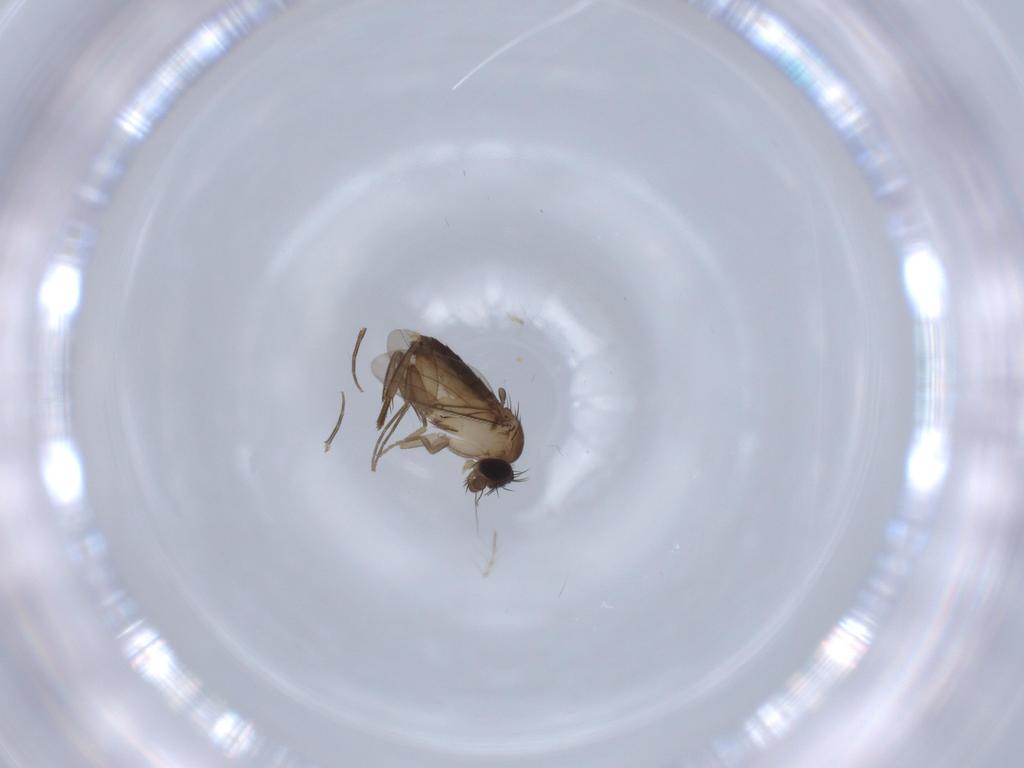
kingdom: Animalia
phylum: Arthropoda
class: Insecta
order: Diptera
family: Phoridae
